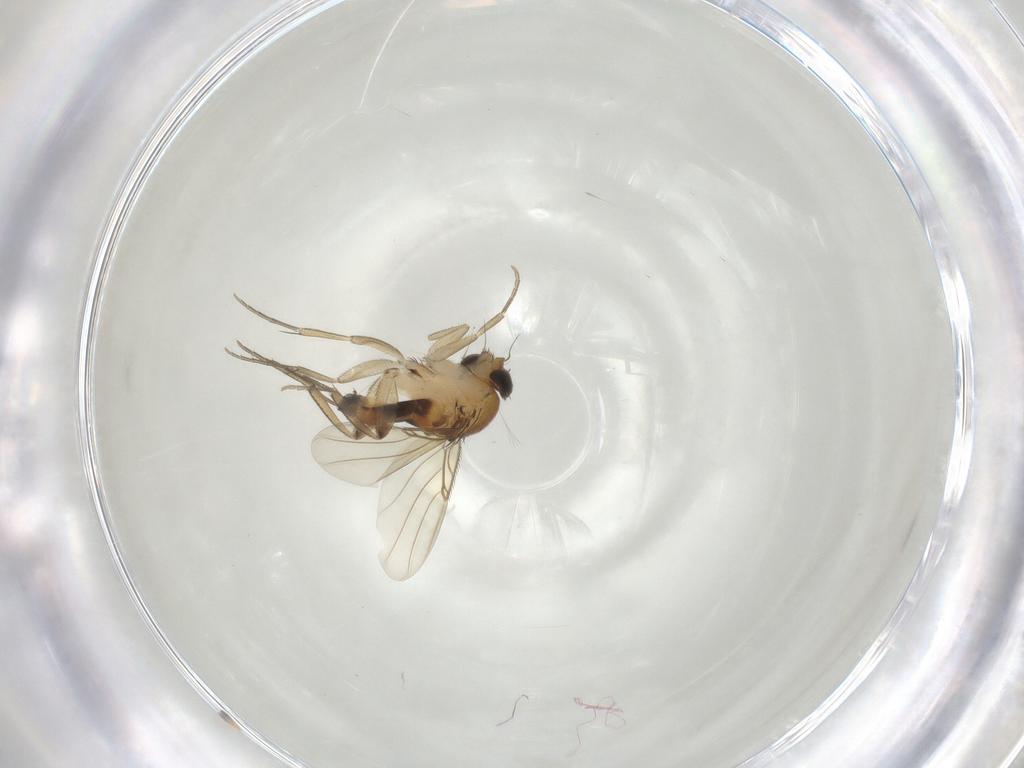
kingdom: Animalia
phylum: Arthropoda
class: Insecta
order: Diptera
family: Phoridae
